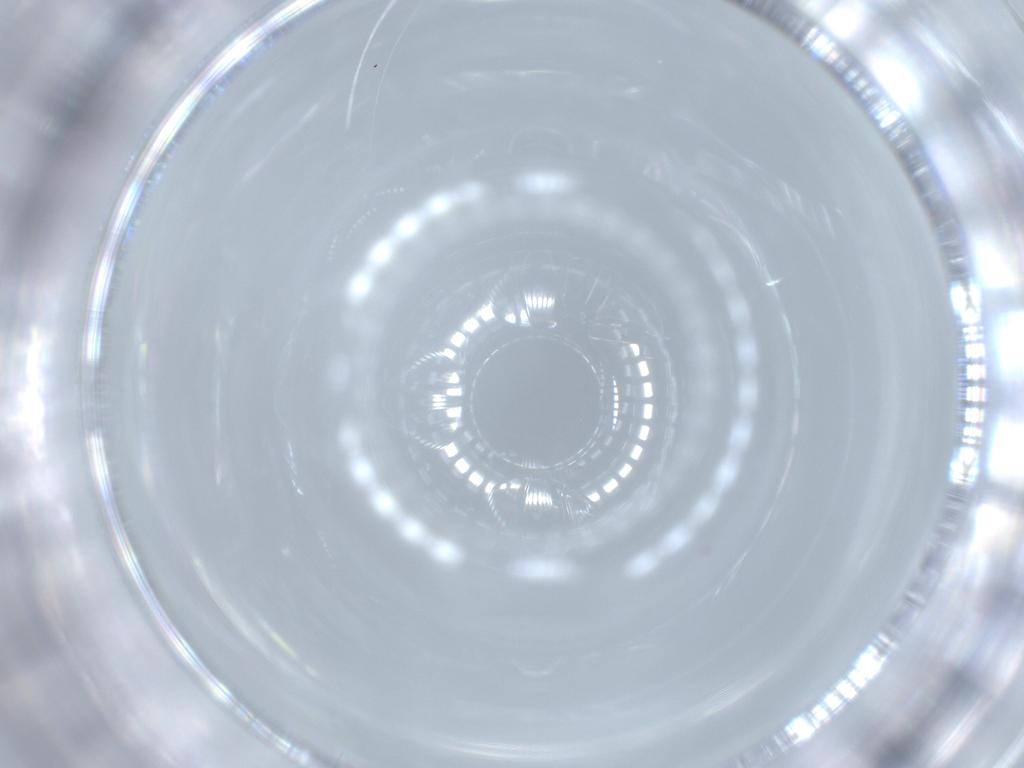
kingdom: Animalia
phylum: Arthropoda
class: Insecta
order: Diptera
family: Chironomidae
